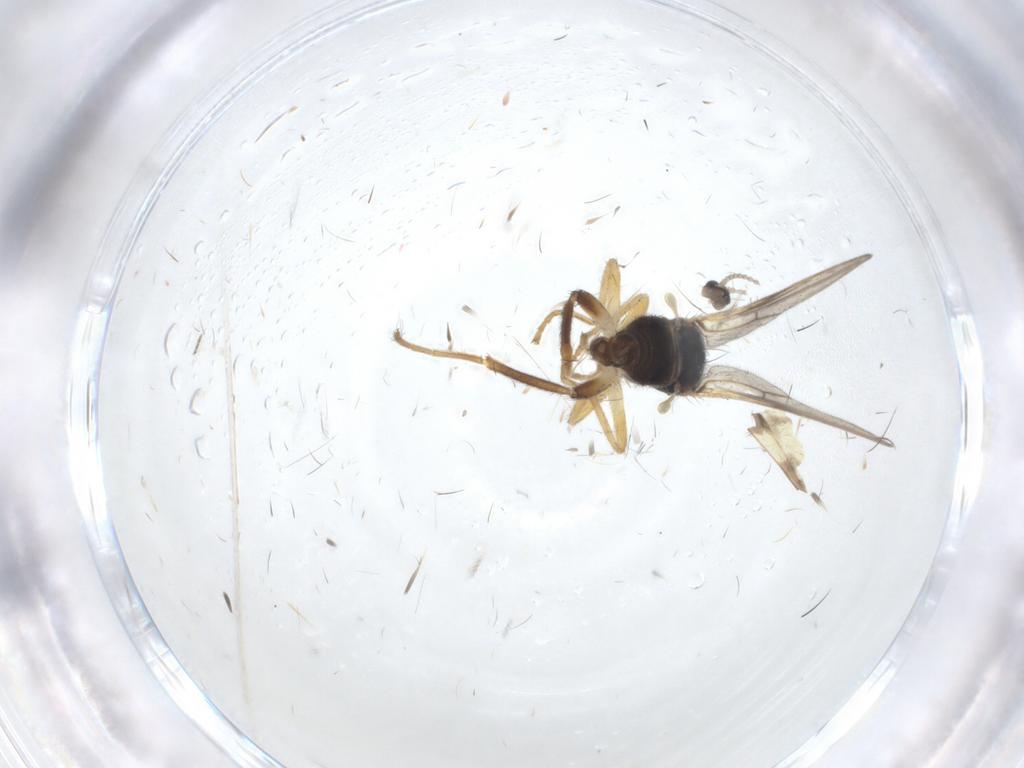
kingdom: Animalia
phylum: Arthropoda
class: Insecta
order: Diptera
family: Hybotidae
